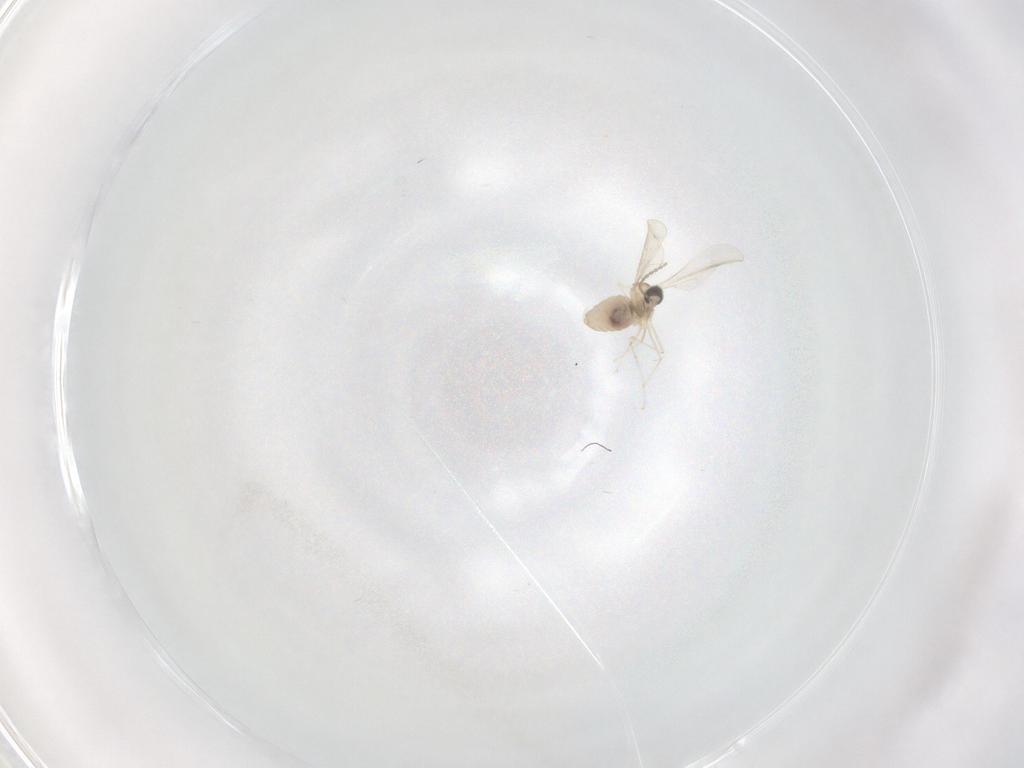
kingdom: Animalia
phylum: Arthropoda
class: Insecta
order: Diptera
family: Cecidomyiidae
